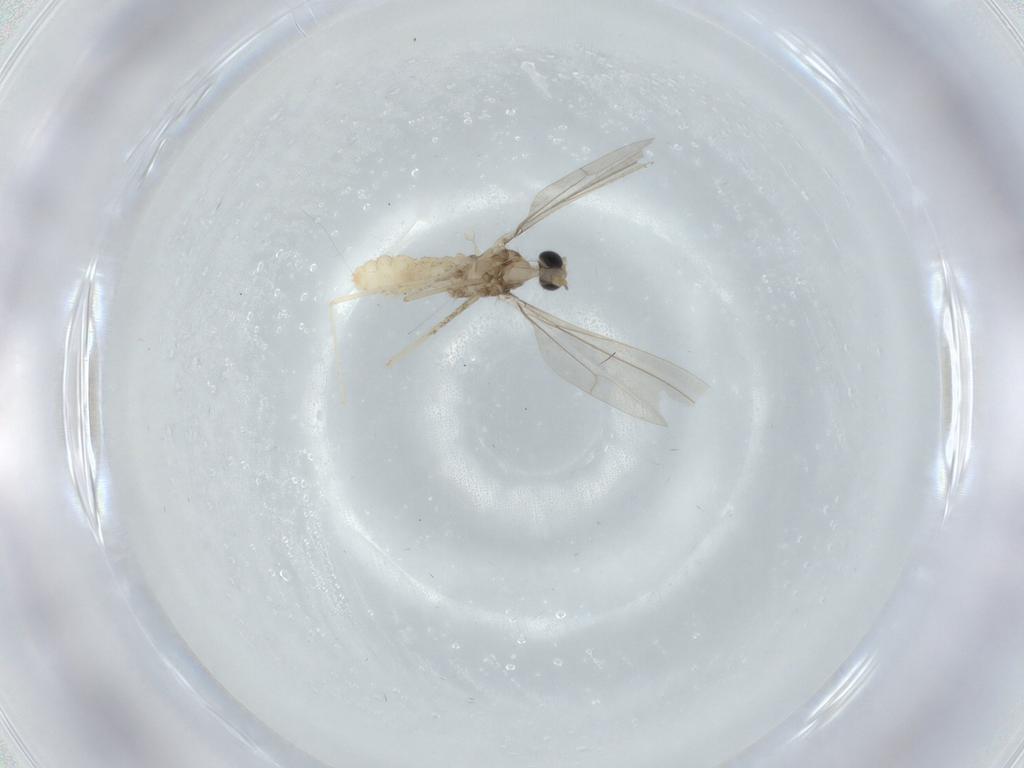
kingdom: Animalia
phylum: Arthropoda
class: Insecta
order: Diptera
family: Cecidomyiidae
